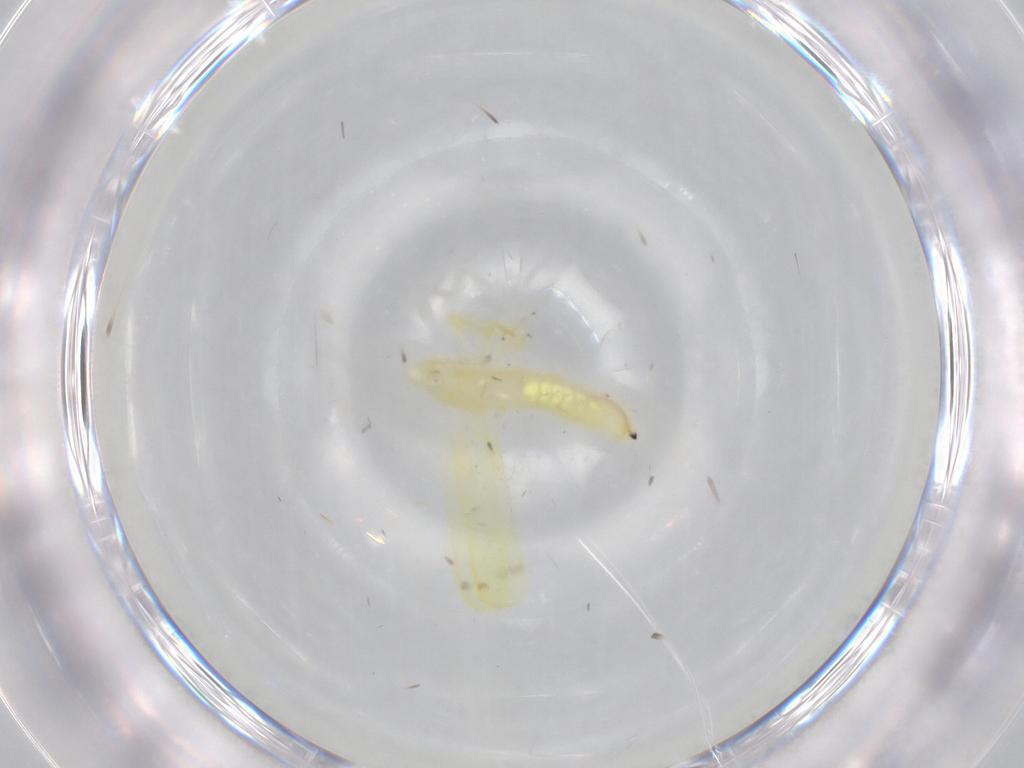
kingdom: Animalia
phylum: Arthropoda
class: Insecta
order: Hemiptera
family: Cicadellidae
